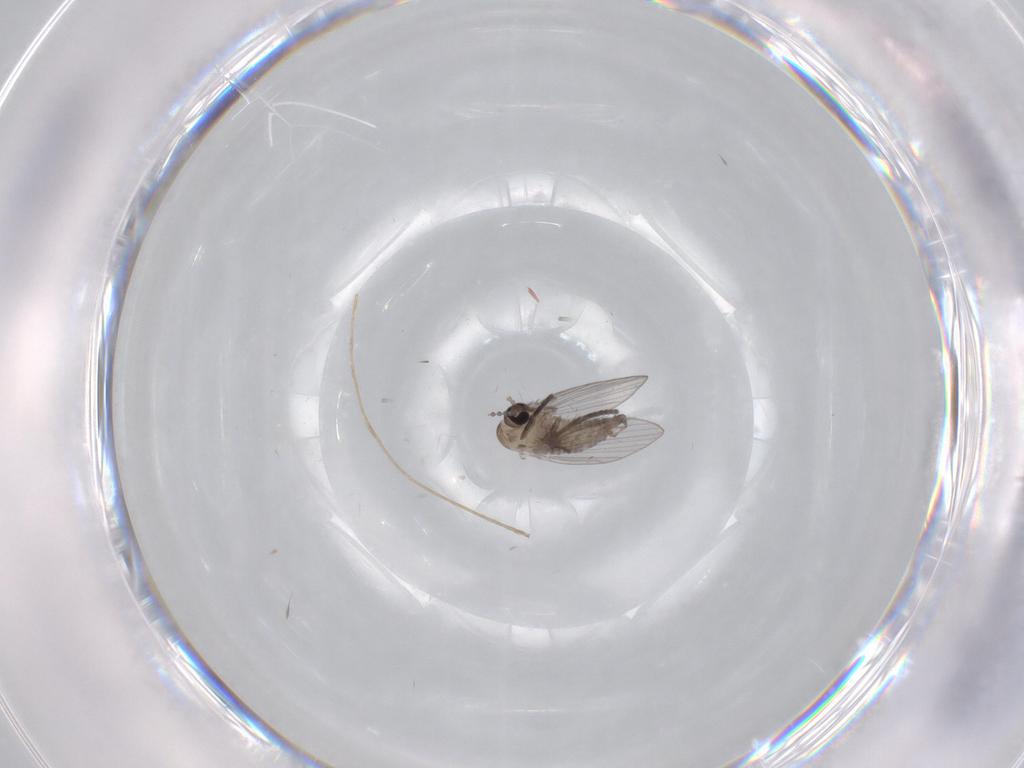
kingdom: Animalia
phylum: Arthropoda
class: Insecta
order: Diptera
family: Psychodidae
